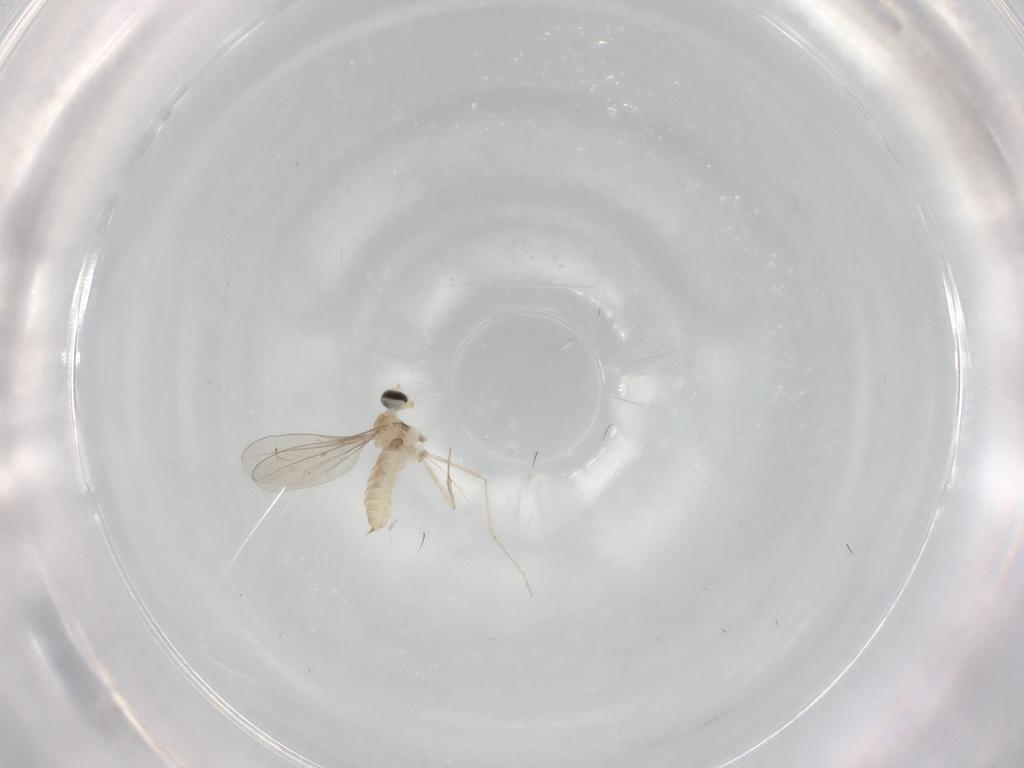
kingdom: Animalia
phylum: Arthropoda
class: Insecta
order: Diptera
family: Cecidomyiidae
